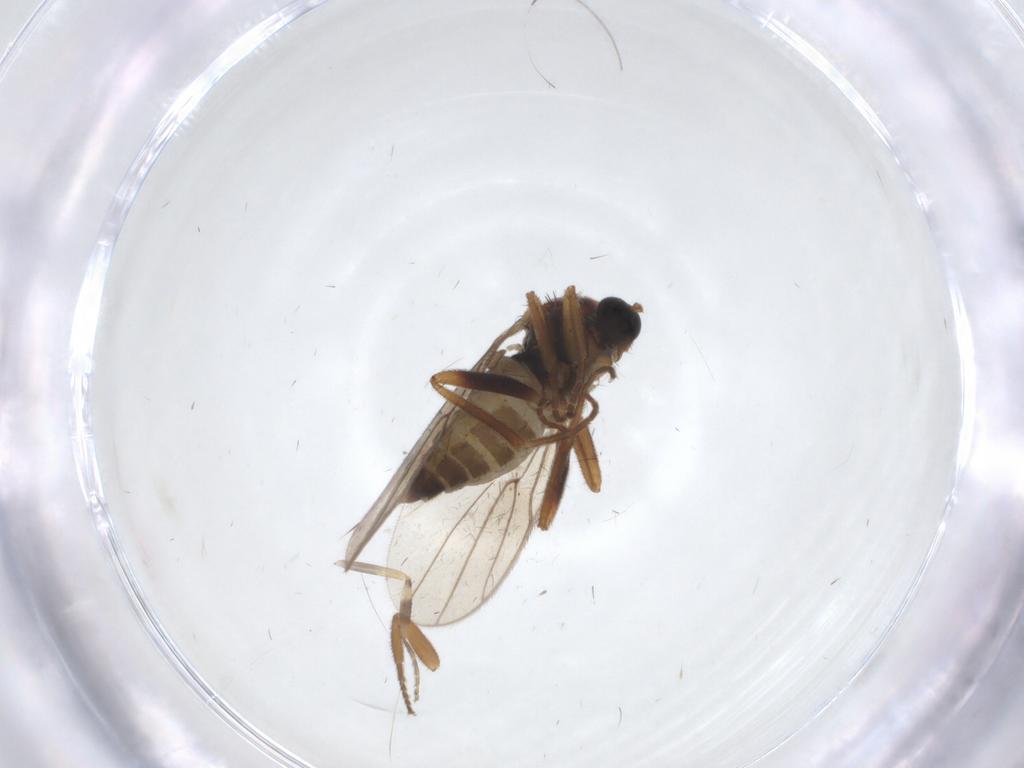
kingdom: Animalia
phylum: Arthropoda
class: Insecta
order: Diptera
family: Hybotidae
